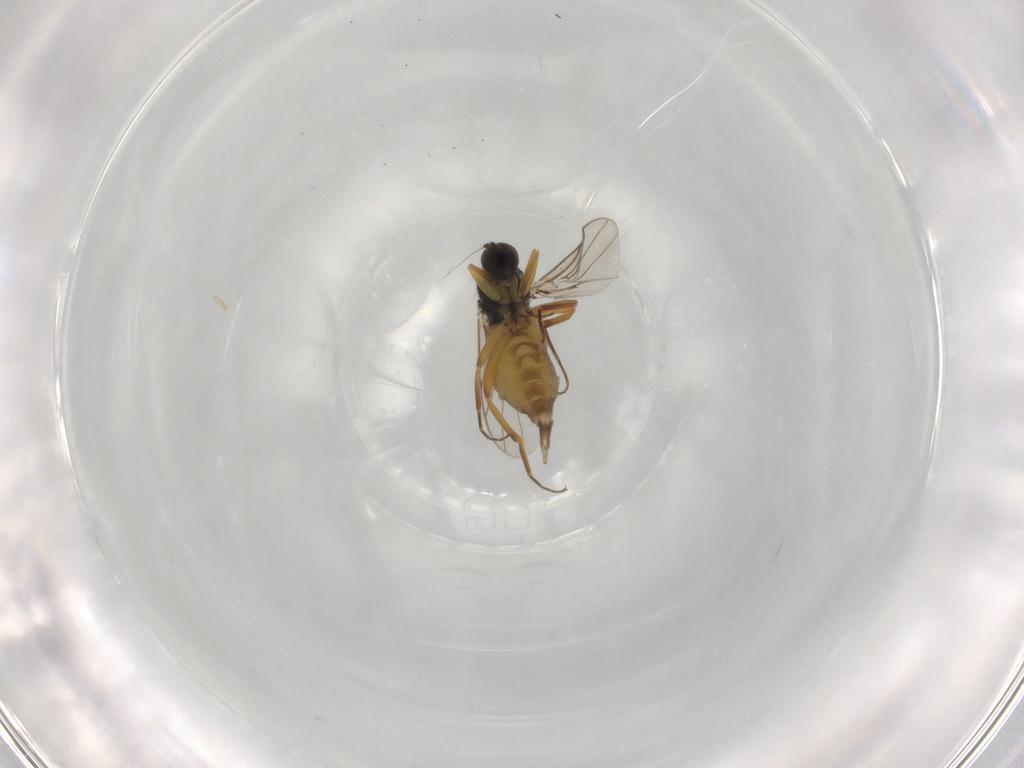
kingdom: Animalia
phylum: Arthropoda
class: Insecta
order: Diptera
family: Hybotidae
